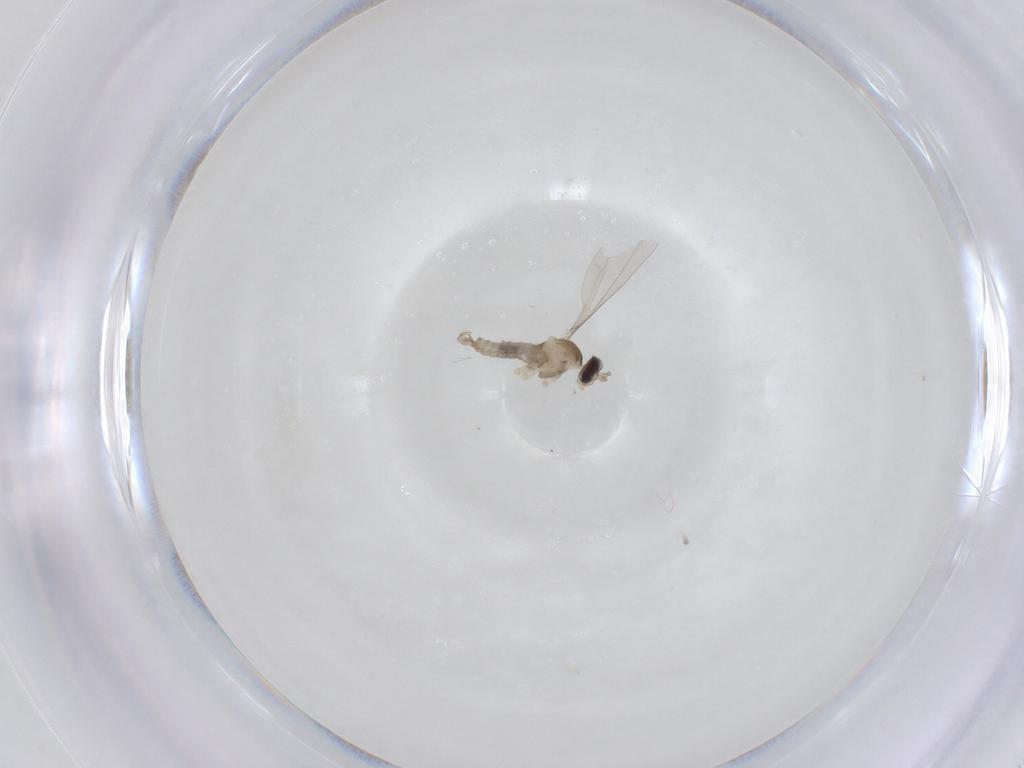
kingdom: Animalia
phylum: Arthropoda
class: Insecta
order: Diptera
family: Cecidomyiidae
